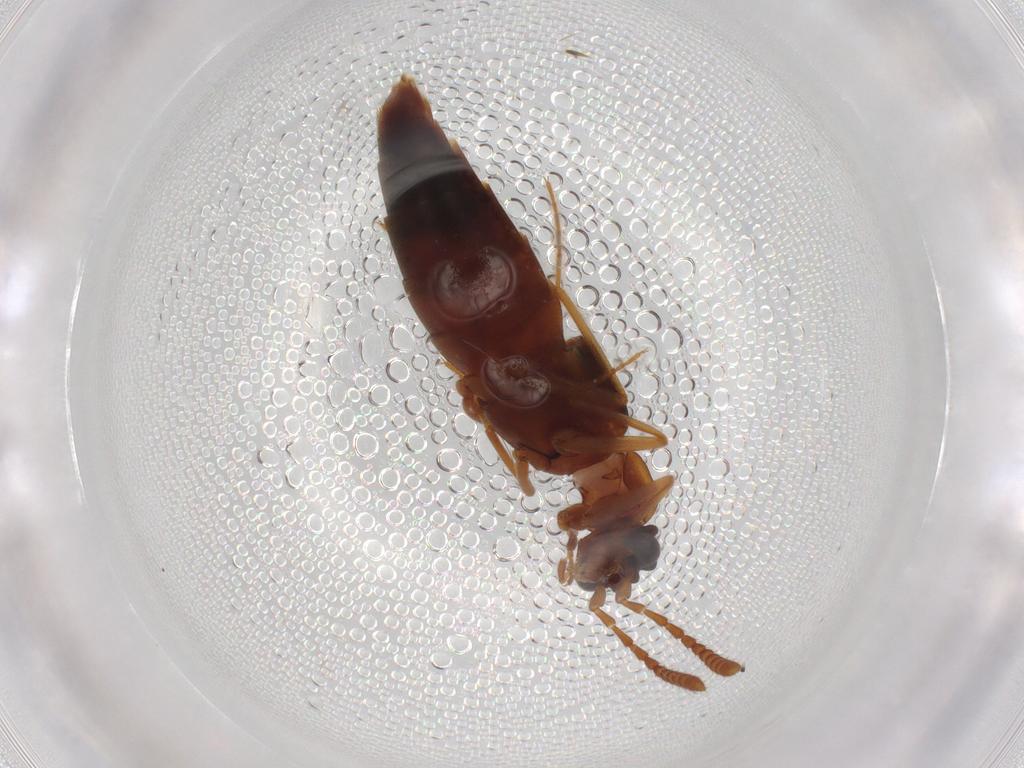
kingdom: Animalia
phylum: Arthropoda
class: Insecta
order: Coleoptera
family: Staphylinidae
